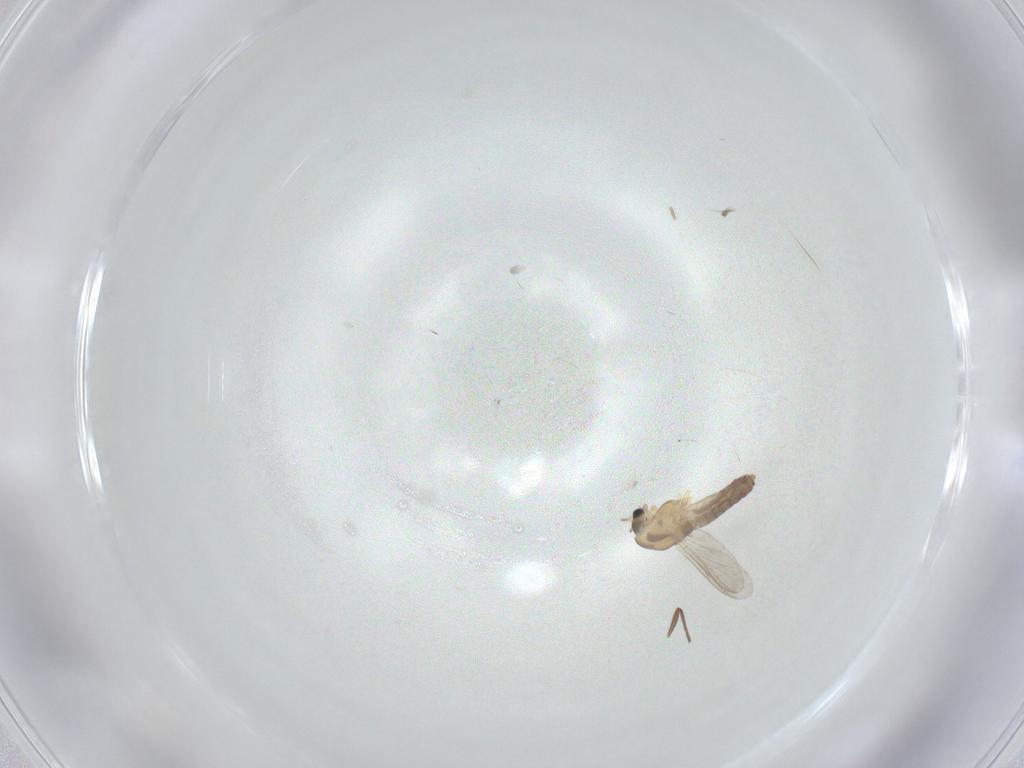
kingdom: Animalia
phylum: Arthropoda
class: Insecta
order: Diptera
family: Chironomidae
